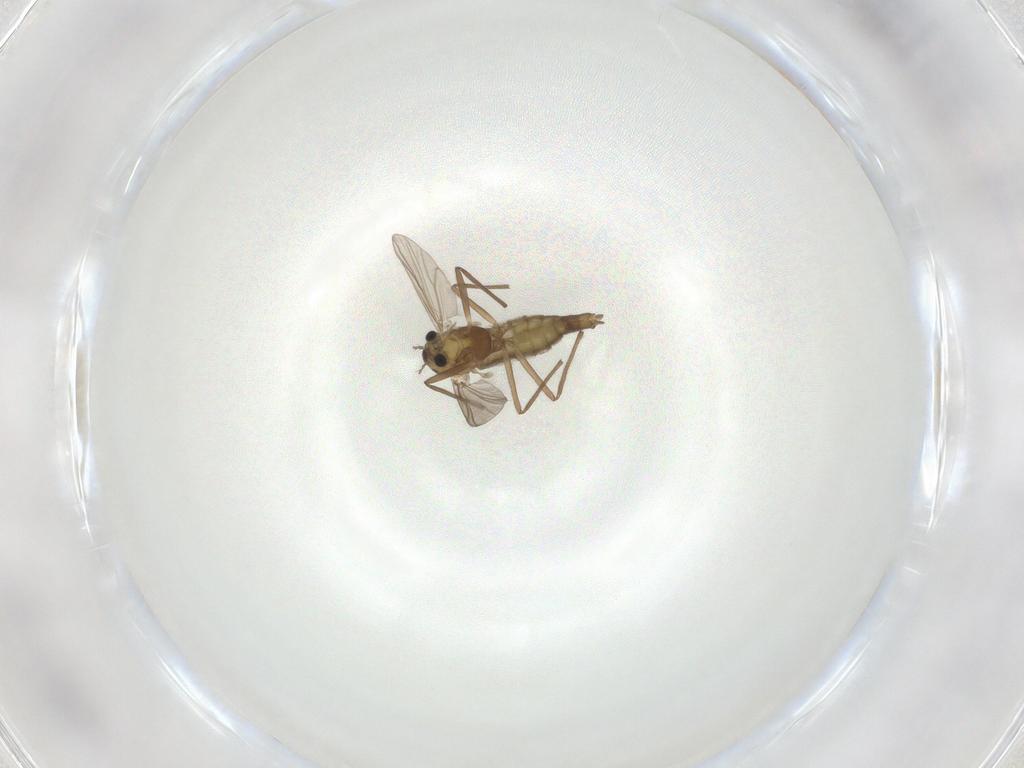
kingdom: Animalia
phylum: Arthropoda
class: Insecta
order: Diptera
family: Chironomidae
